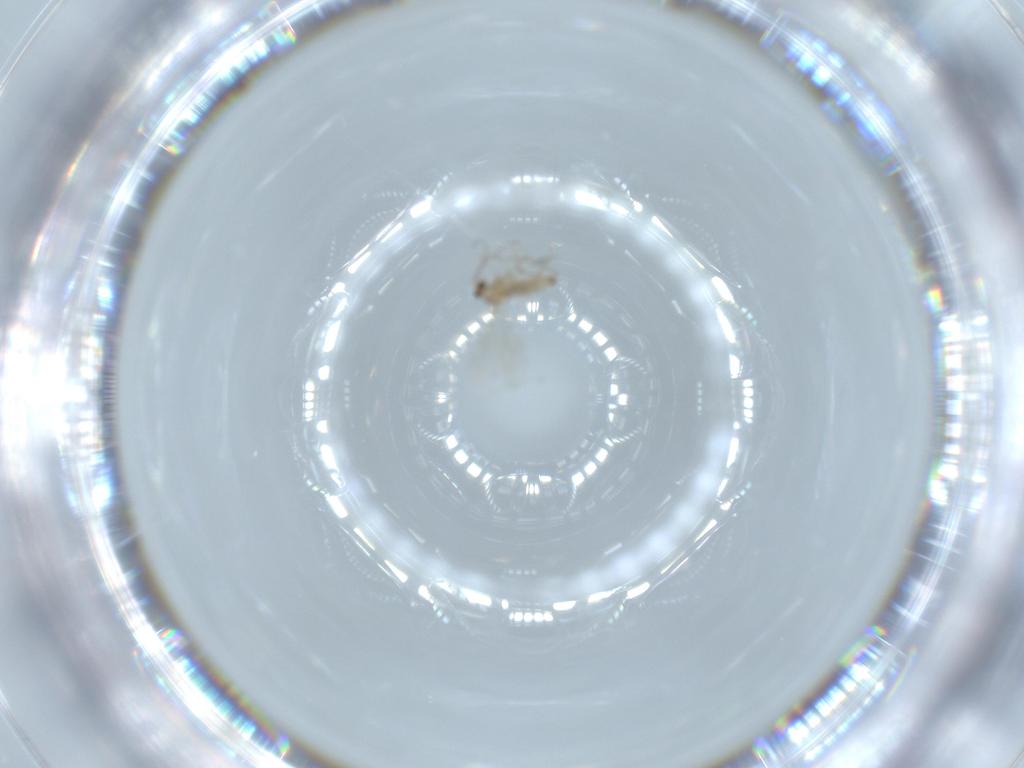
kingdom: Animalia
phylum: Arthropoda
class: Insecta
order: Diptera
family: Cecidomyiidae
